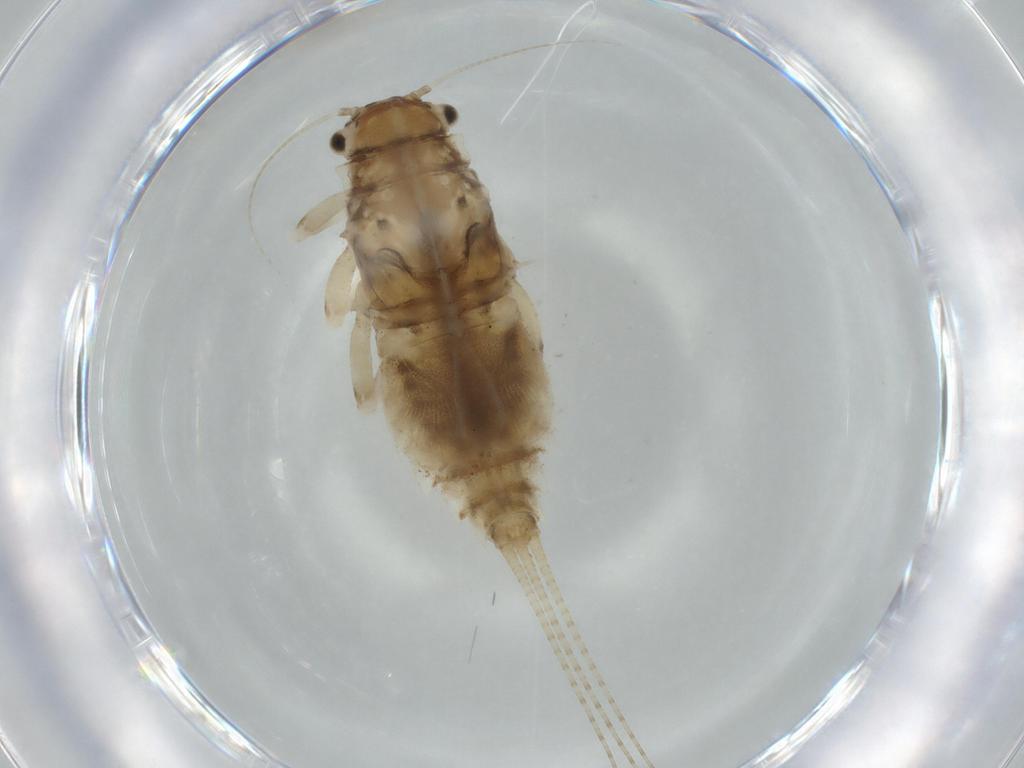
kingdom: Animalia
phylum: Arthropoda
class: Insecta
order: Ephemeroptera
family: Caenidae
